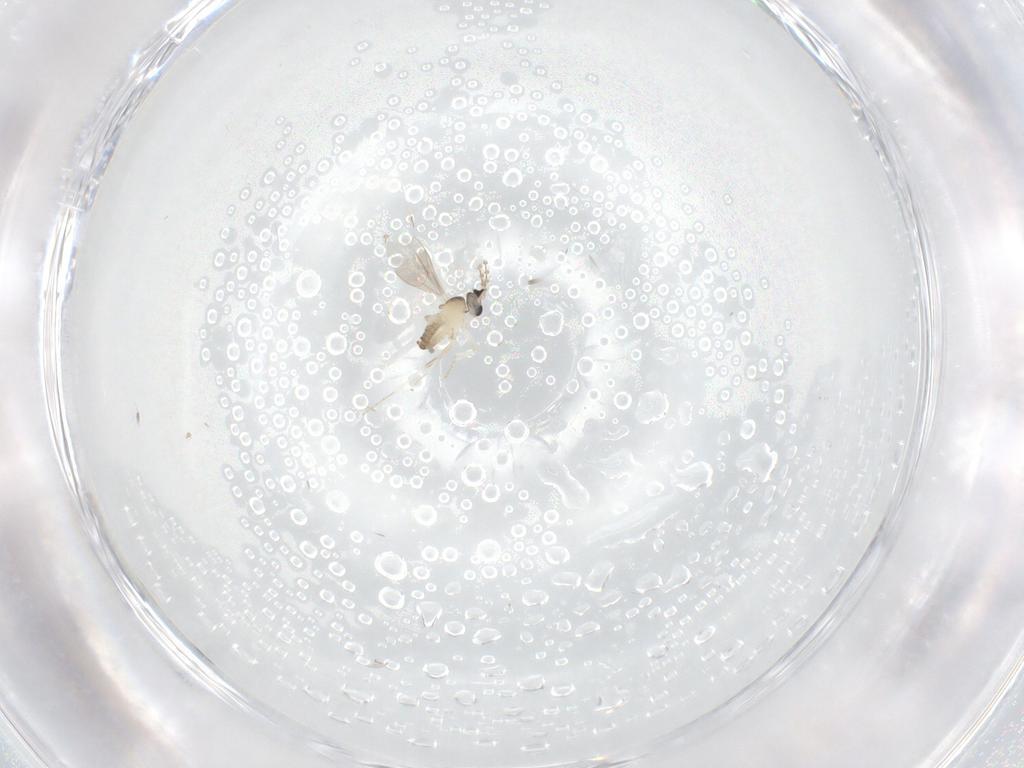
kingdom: Animalia
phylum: Arthropoda
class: Insecta
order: Diptera
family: Cecidomyiidae
